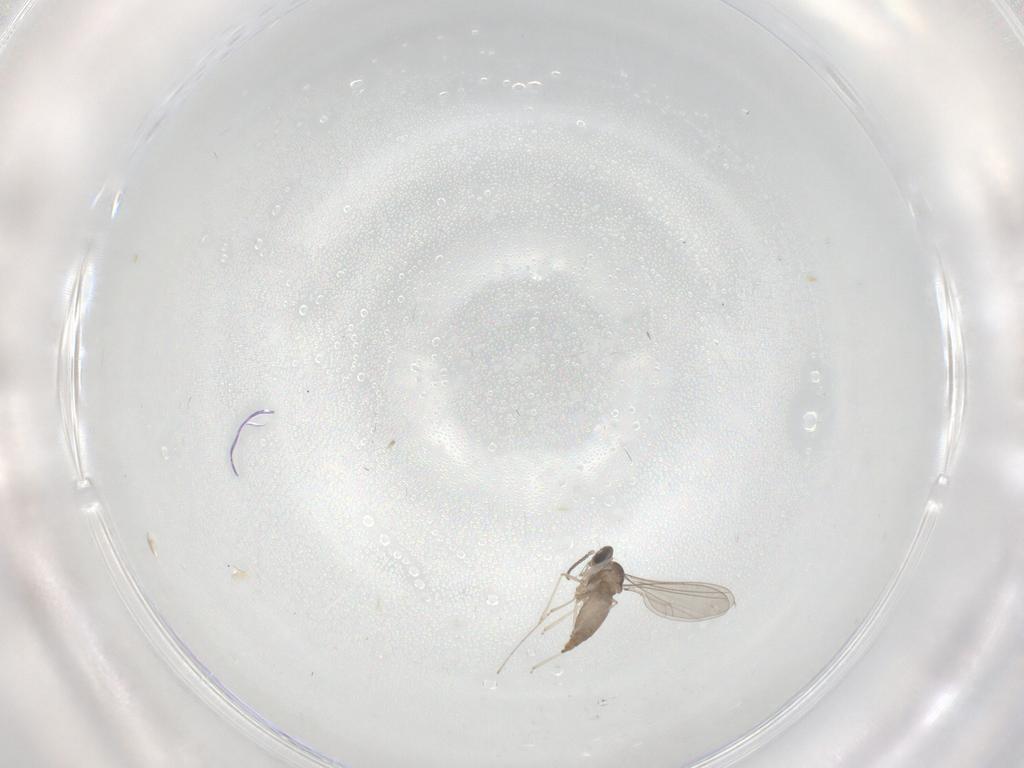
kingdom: Animalia
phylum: Arthropoda
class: Insecta
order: Diptera
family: Cecidomyiidae
